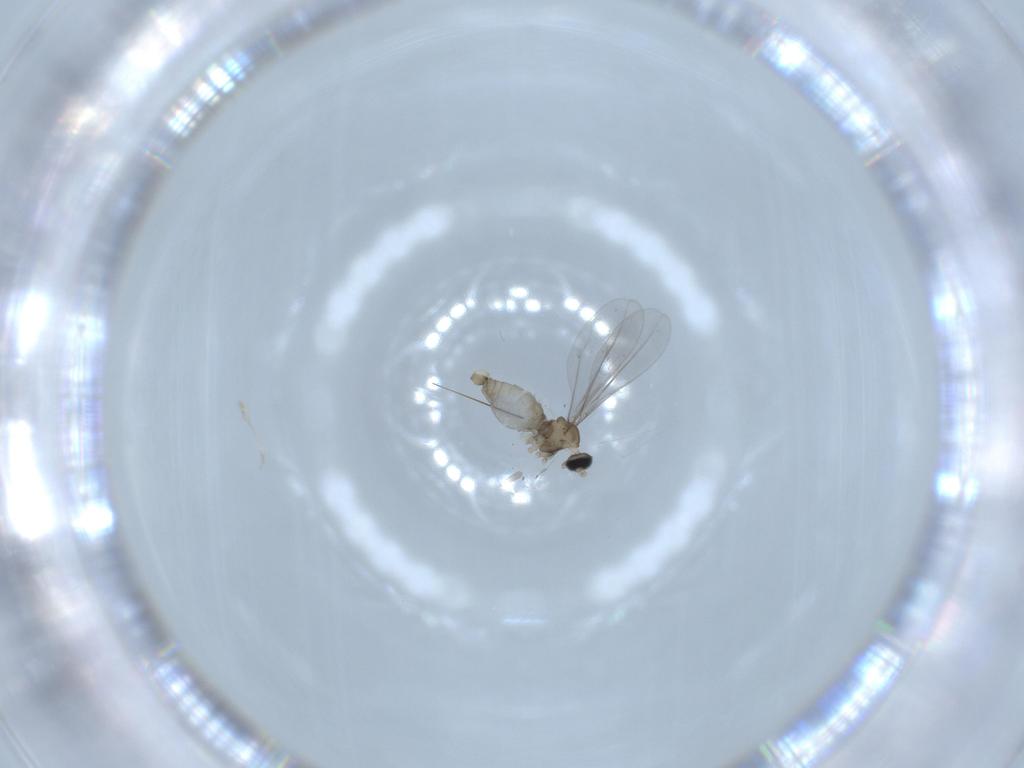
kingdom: Animalia
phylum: Arthropoda
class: Insecta
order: Diptera
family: Cecidomyiidae
